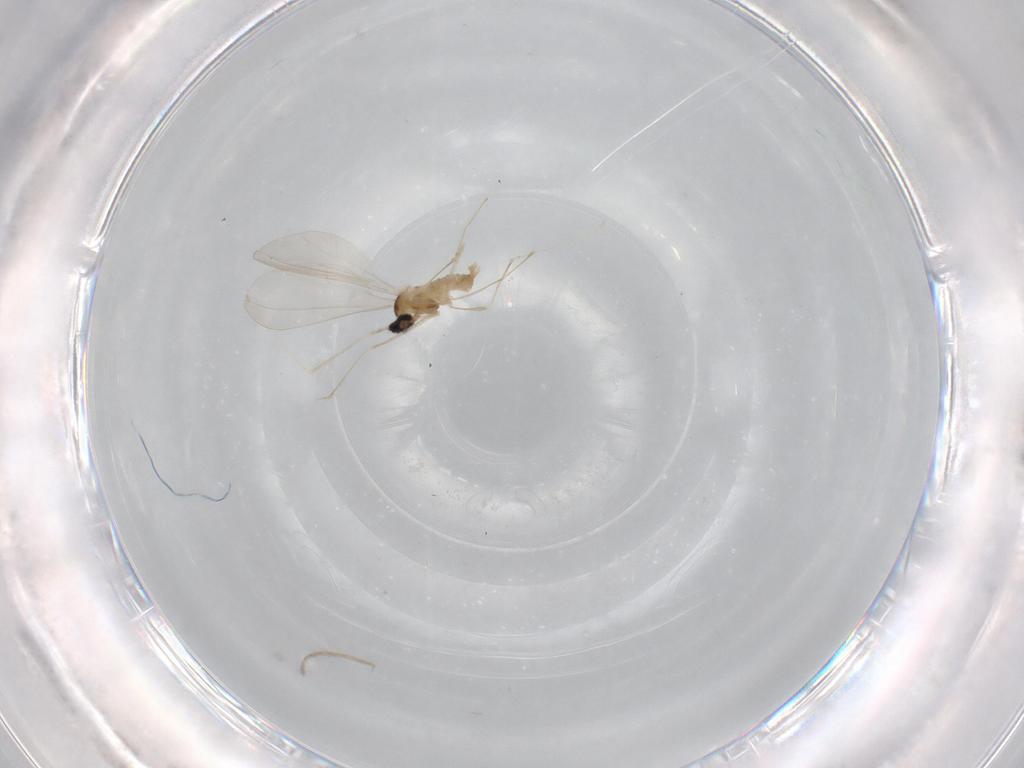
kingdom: Animalia
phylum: Arthropoda
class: Insecta
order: Diptera
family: Cecidomyiidae
